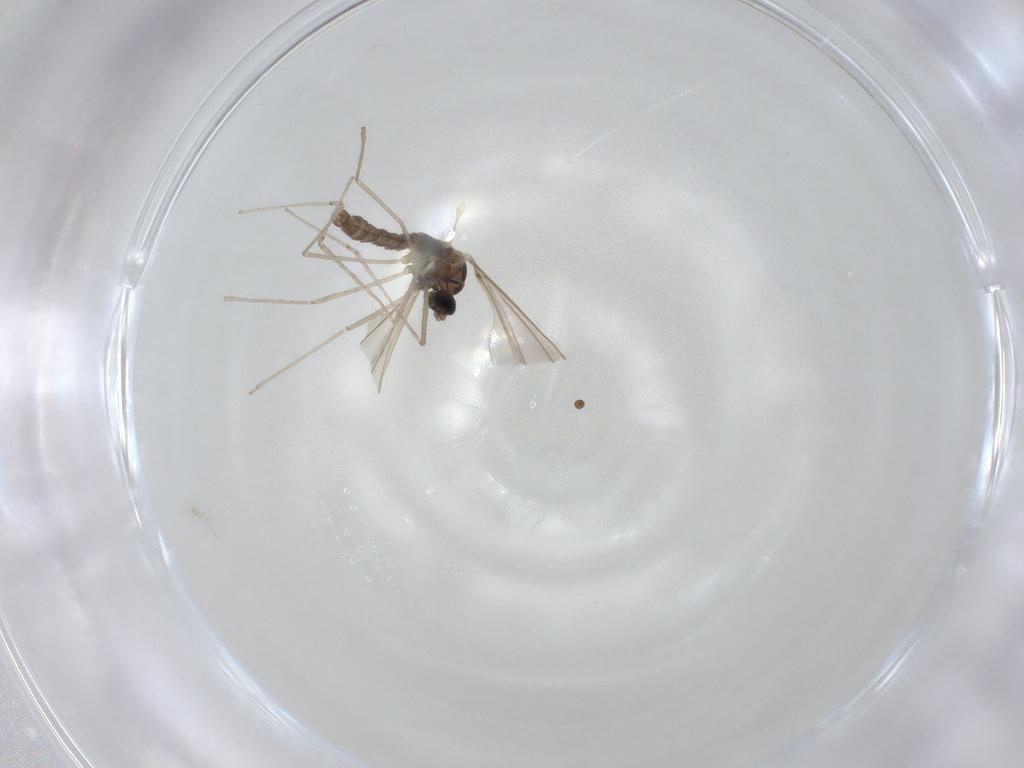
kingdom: Animalia
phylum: Arthropoda
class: Insecta
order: Diptera
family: Cecidomyiidae
